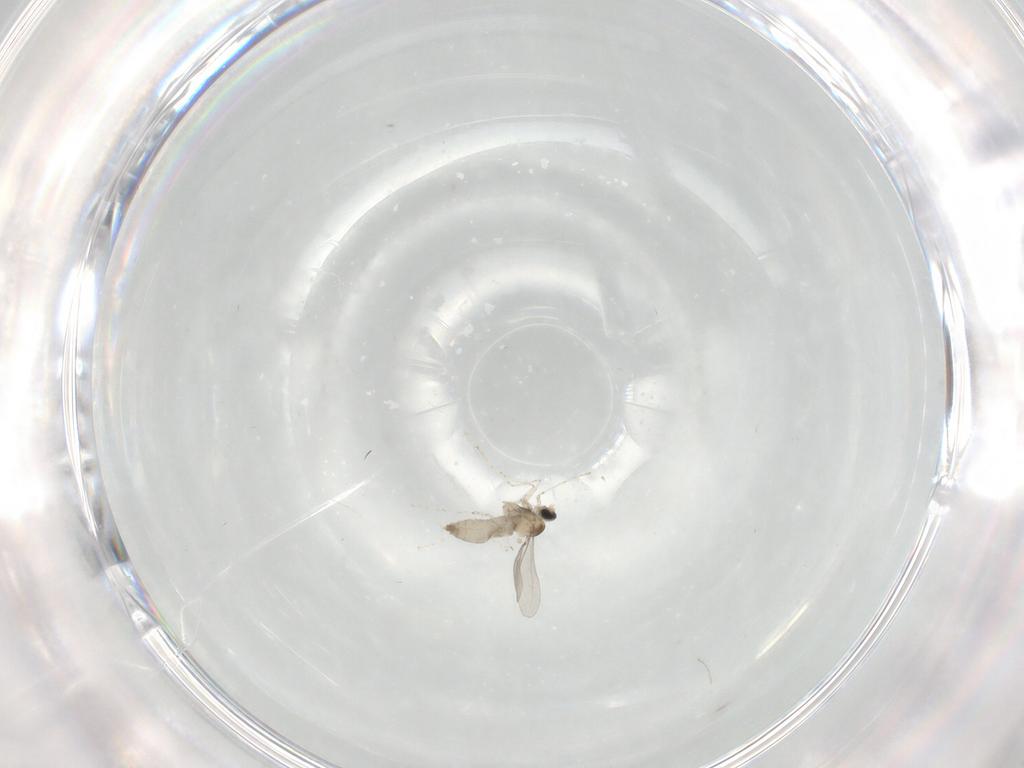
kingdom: Animalia
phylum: Arthropoda
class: Insecta
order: Diptera
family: Cecidomyiidae
